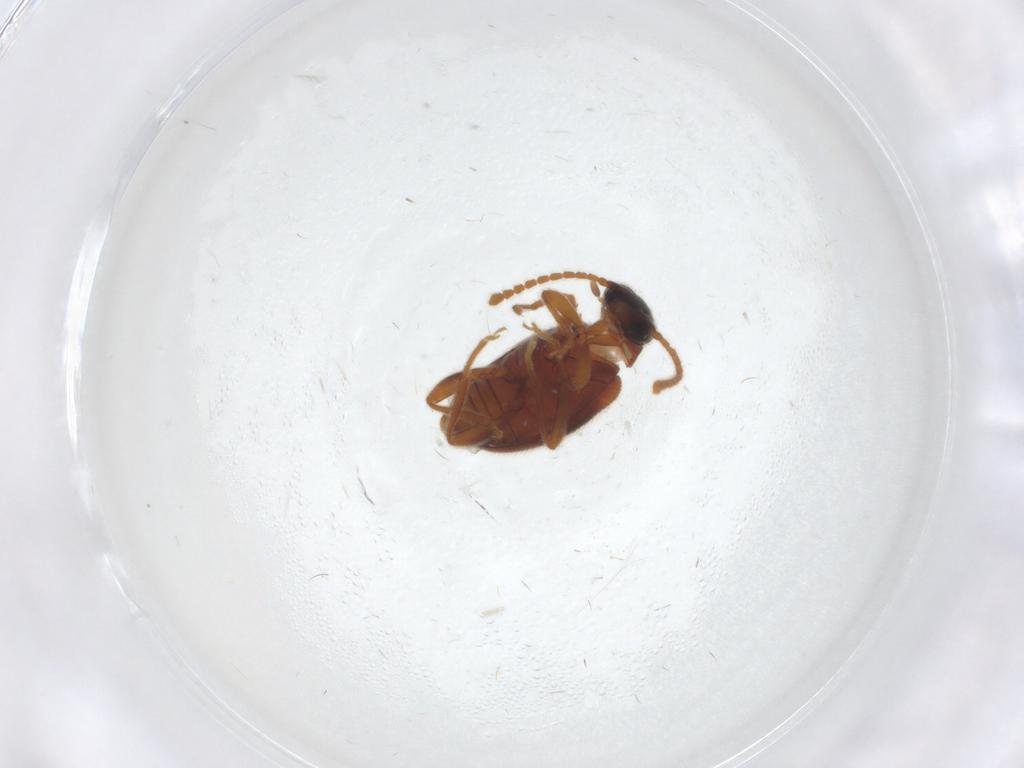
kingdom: Animalia
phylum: Arthropoda
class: Insecta
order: Coleoptera
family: Aderidae
